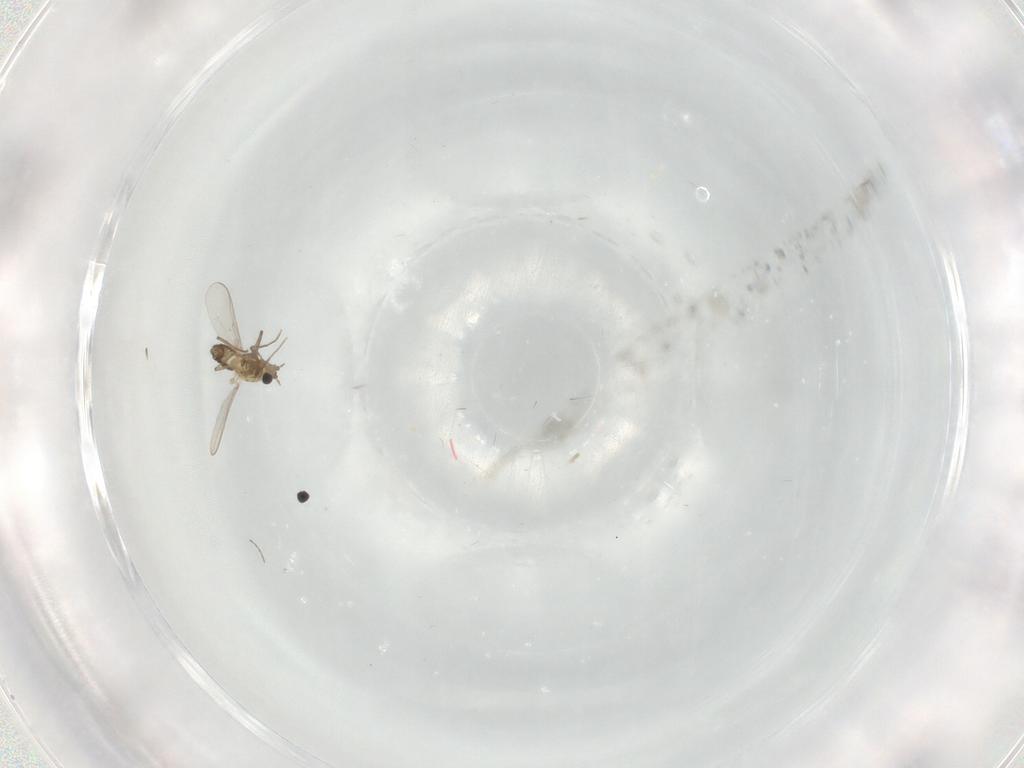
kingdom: Animalia
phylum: Arthropoda
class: Insecta
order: Diptera
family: Chironomidae
